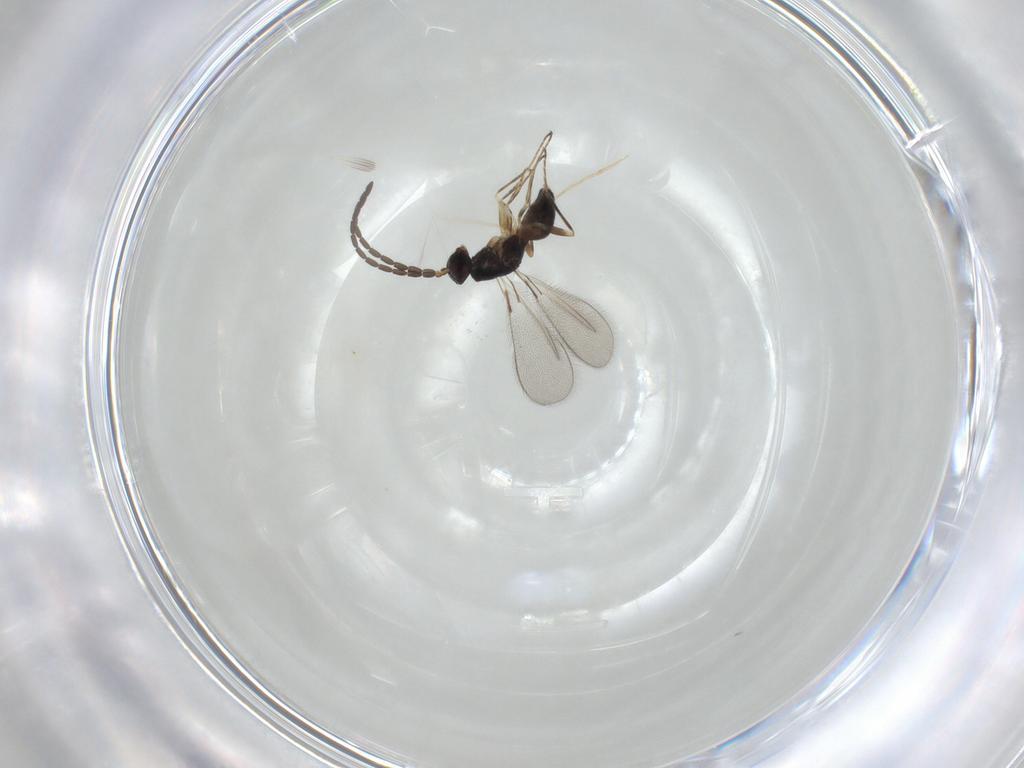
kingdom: Animalia
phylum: Arthropoda
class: Insecta
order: Hymenoptera
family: Mymaridae
